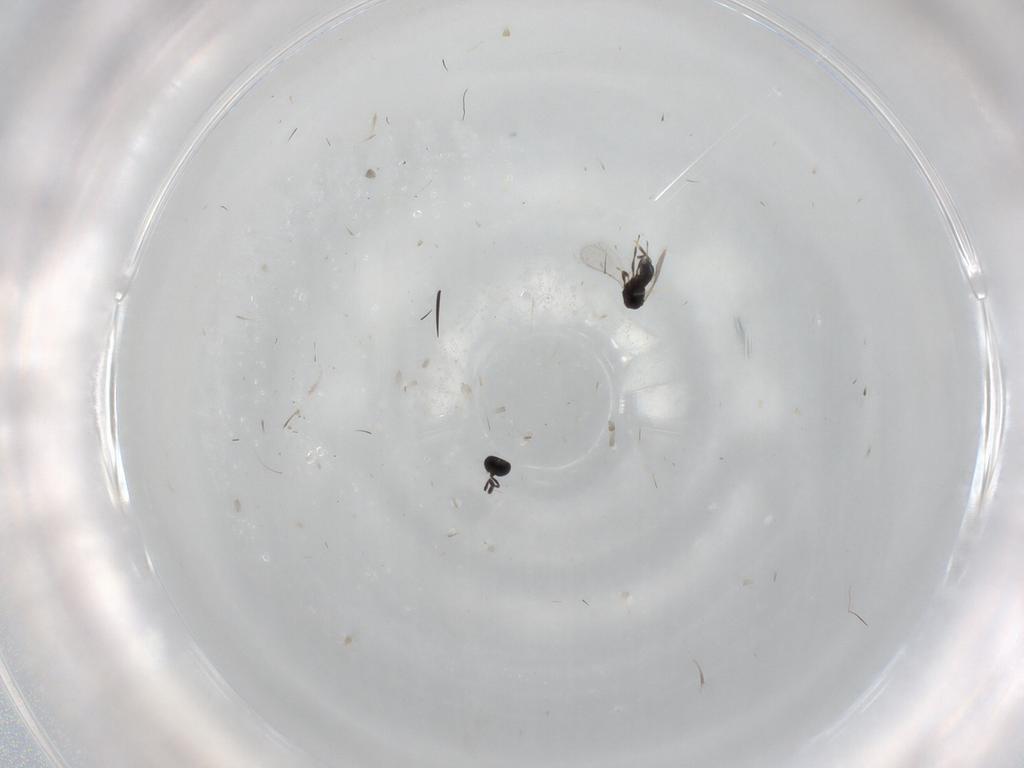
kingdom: Animalia
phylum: Arthropoda
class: Insecta
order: Hymenoptera
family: Scelionidae
